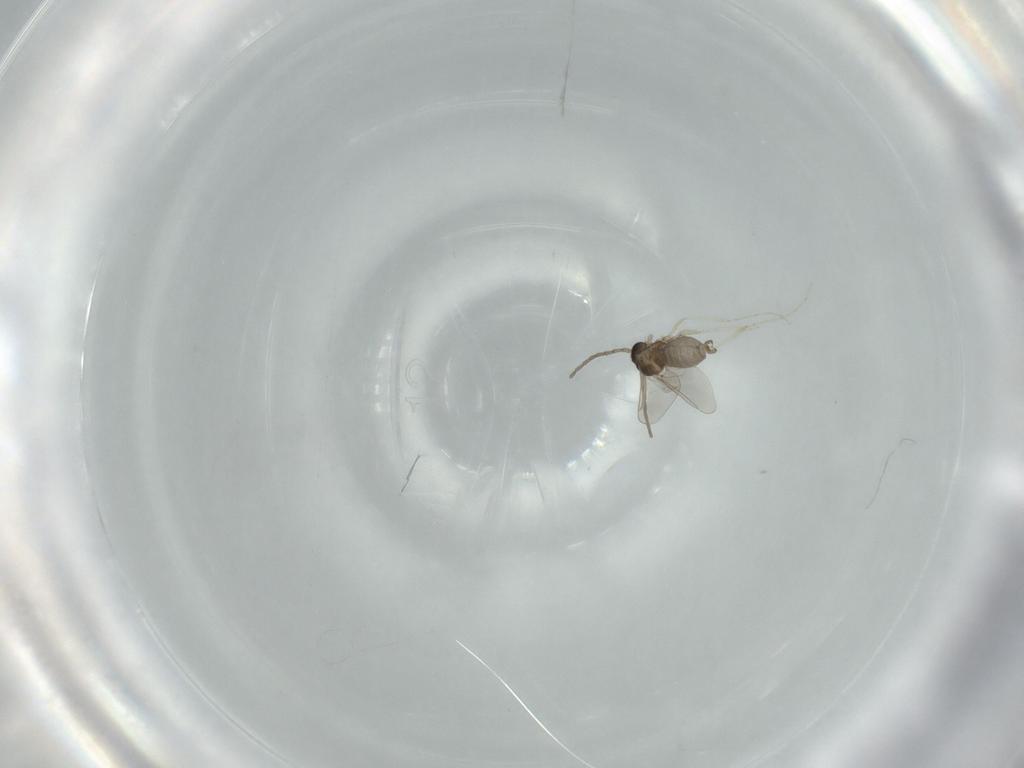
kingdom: Animalia
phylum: Arthropoda
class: Insecta
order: Diptera
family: Cecidomyiidae
